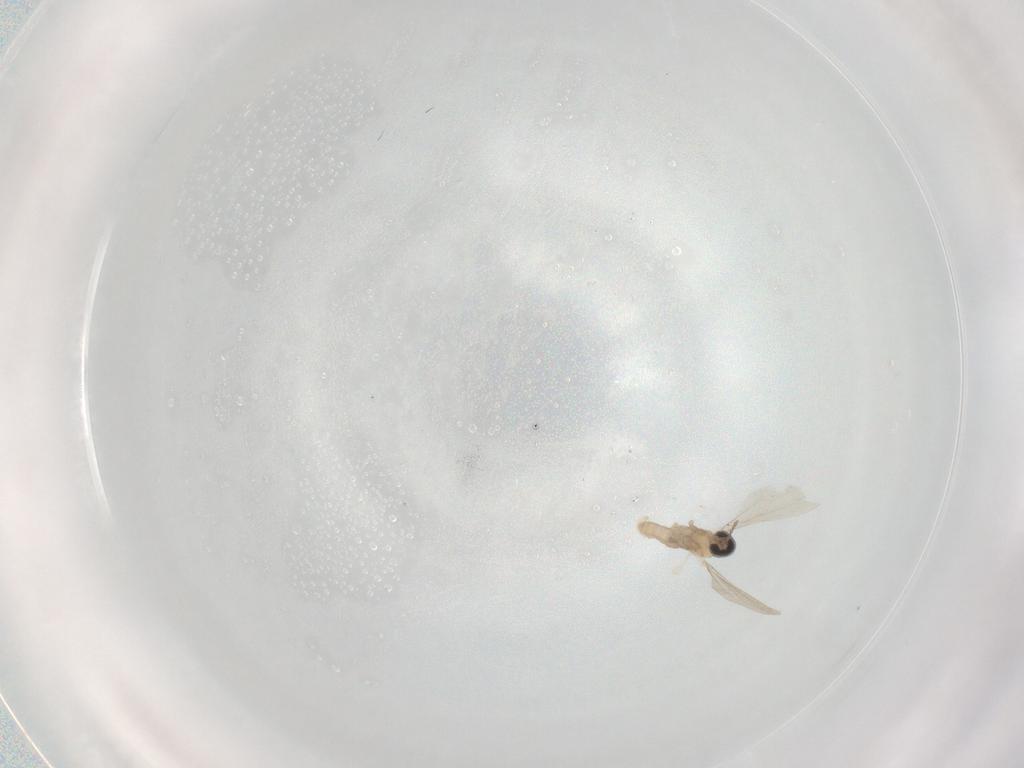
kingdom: Animalia
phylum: Arthropoda
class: Insecta
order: Diptera
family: Cecidomyiidae
